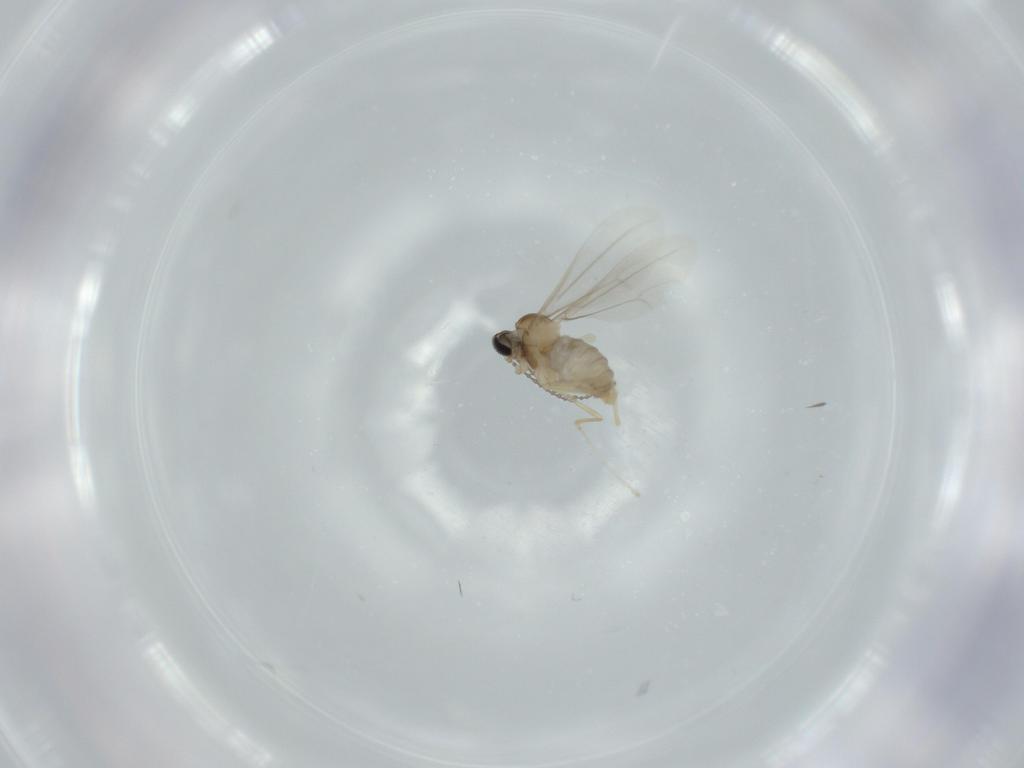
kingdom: Animalia
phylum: Arthropoda
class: Insecta
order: Diptera
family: Cecidomyiidae
